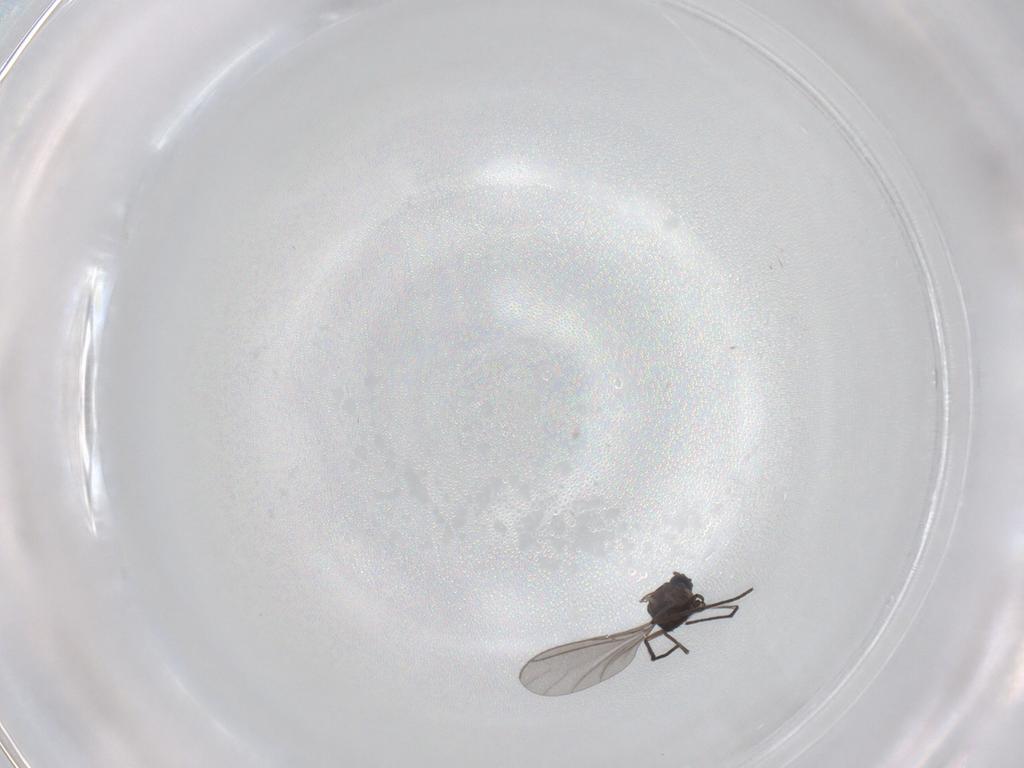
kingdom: Animalia
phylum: Arthropoda
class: Insecta
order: Diptera
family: Sciaridae
